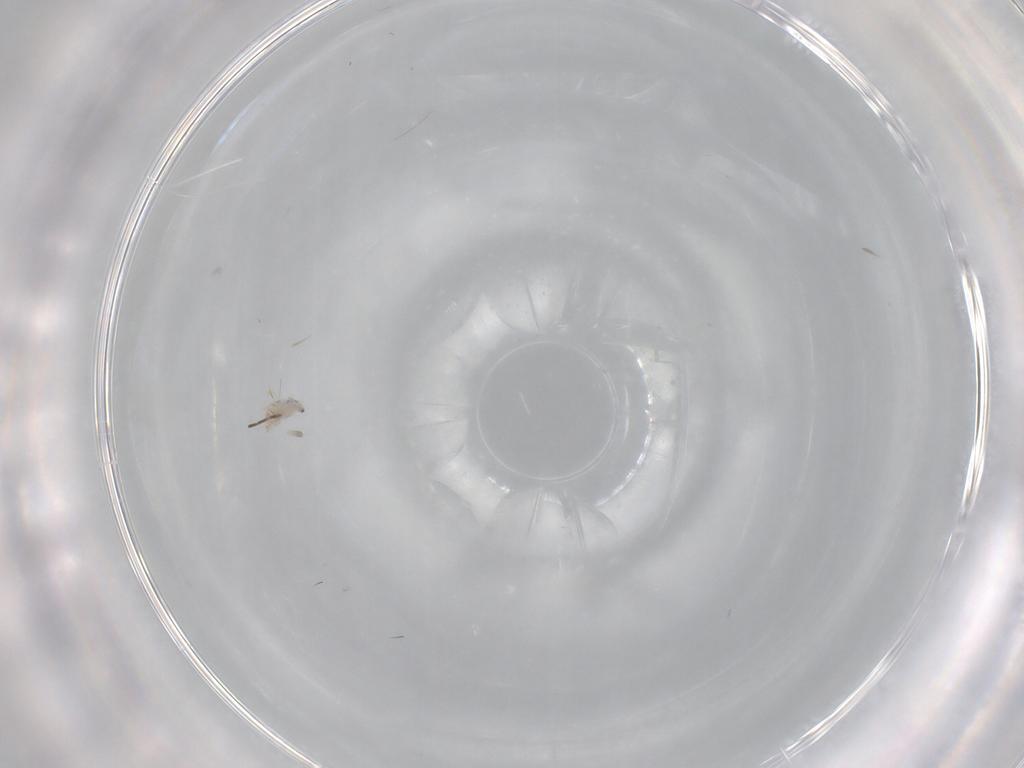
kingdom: Animalia
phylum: Arthropoda
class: Collembola
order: Entomobryomorpha
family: Entomobryidae
